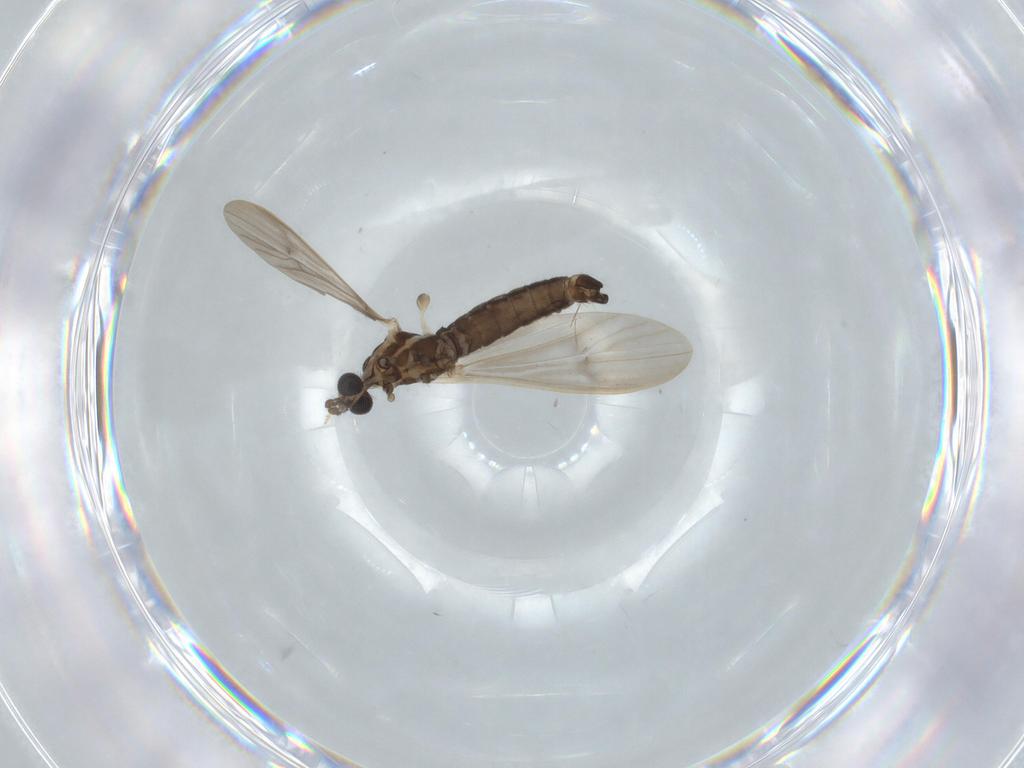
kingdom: Animalia
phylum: Arthropoda
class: Insecta
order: Diptera
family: Limoniidae
